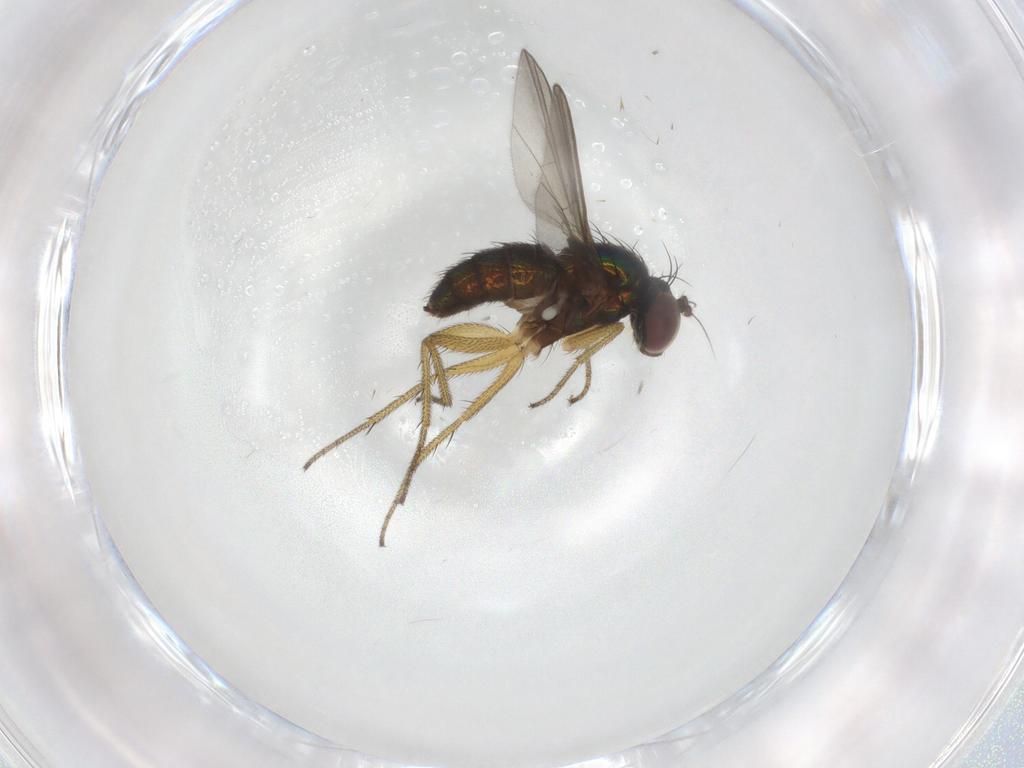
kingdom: Animalia
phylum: Arthropoda
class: Insecta
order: Diptera
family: Dolichopodidae
